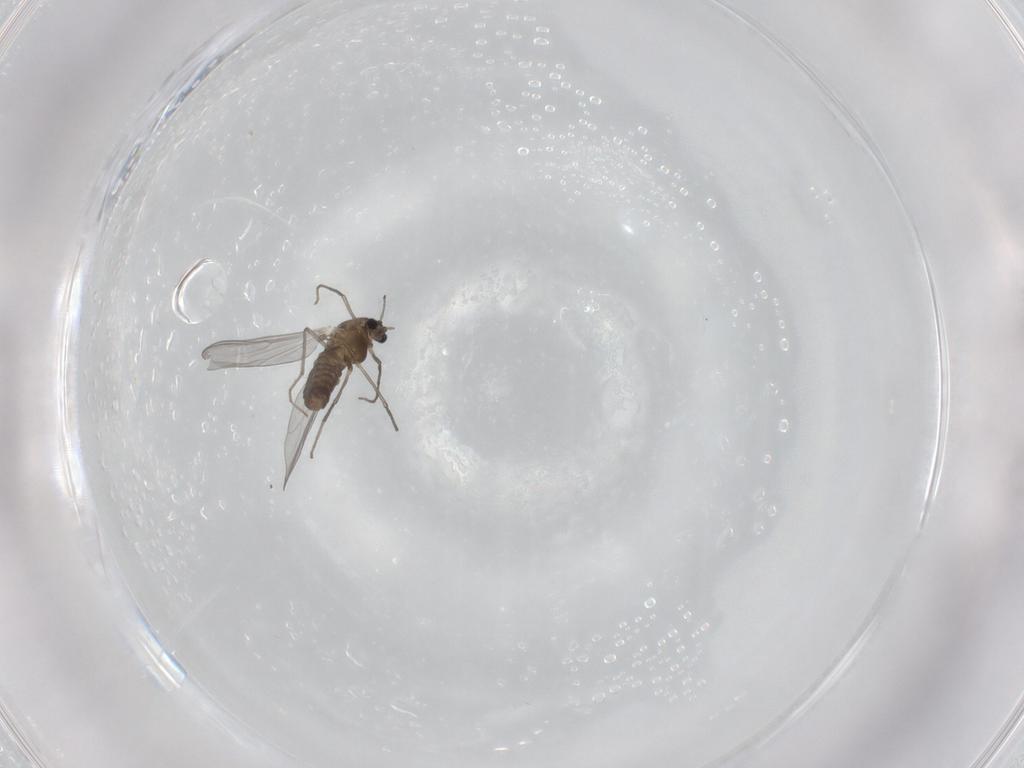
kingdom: Animalia
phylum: Arthropoda
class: Insecta
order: Diptera
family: Chironomidae
